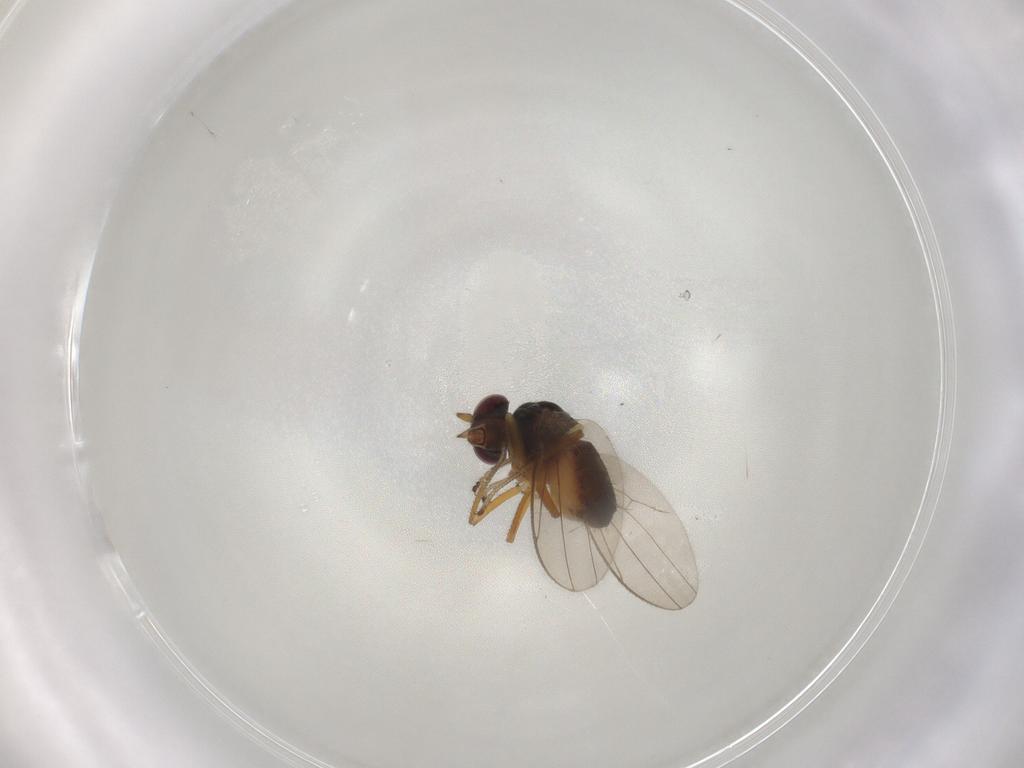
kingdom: Animalia
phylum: Arthropoda
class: Insecta
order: Diptera
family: Ephydridae
